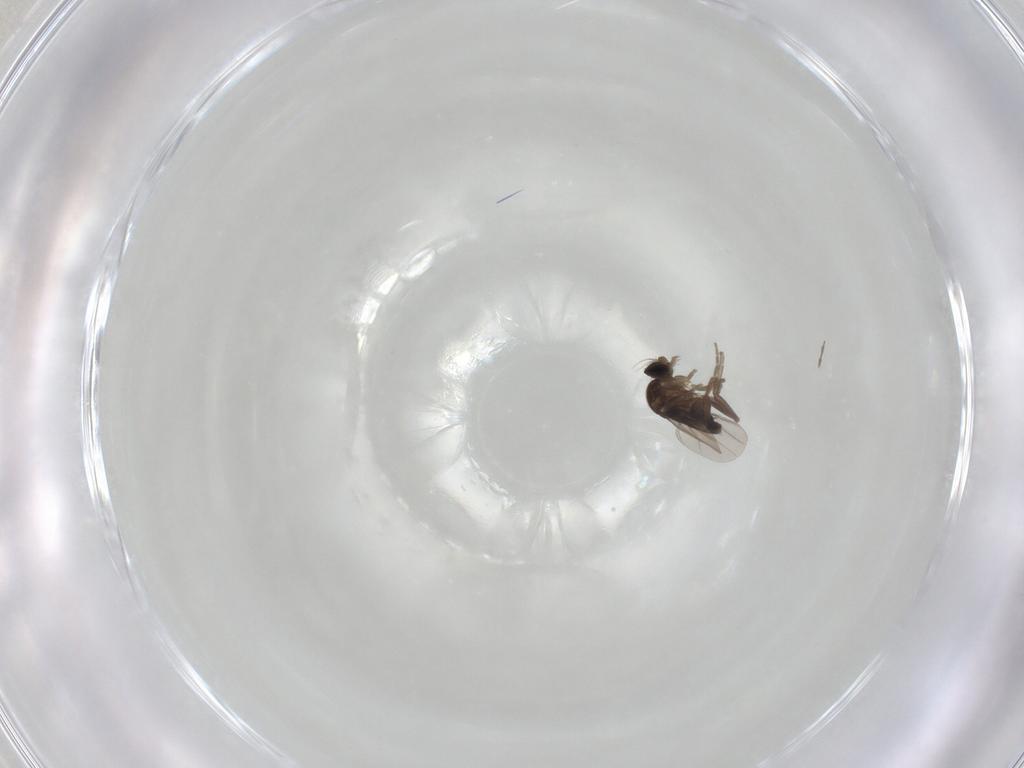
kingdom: Animalia
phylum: Arthropoda
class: Insecta
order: Diptera
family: Phoridae
